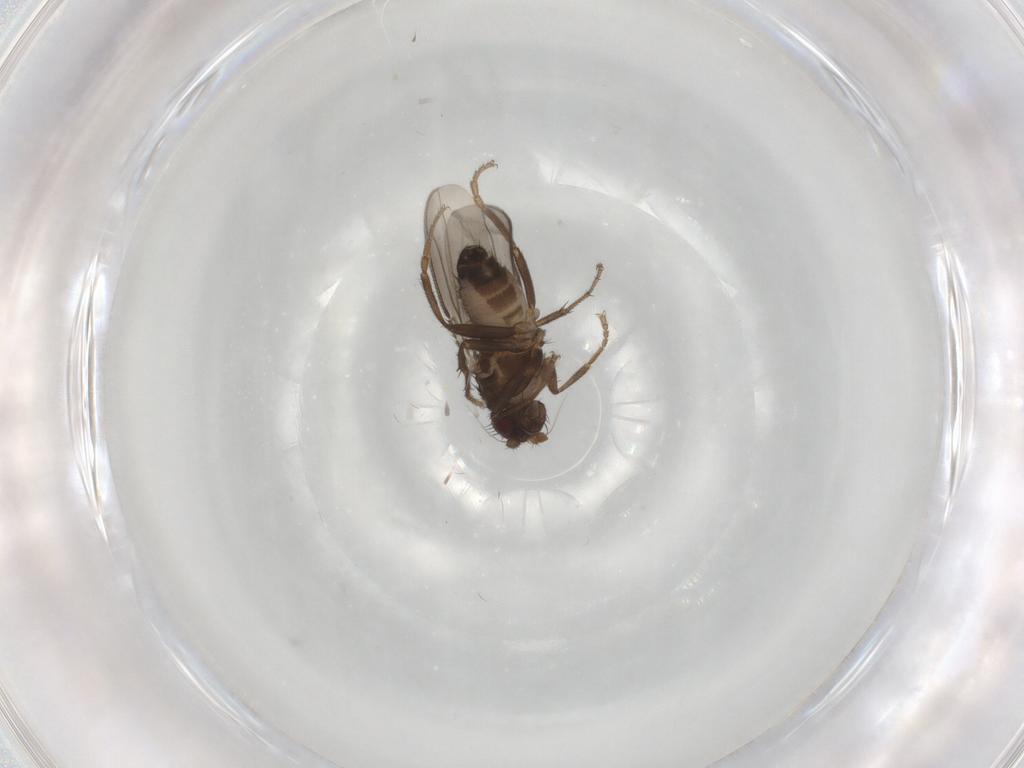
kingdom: Animalia
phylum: Arthropoda
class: Insecta
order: Diptera
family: Sphaeroceridae
